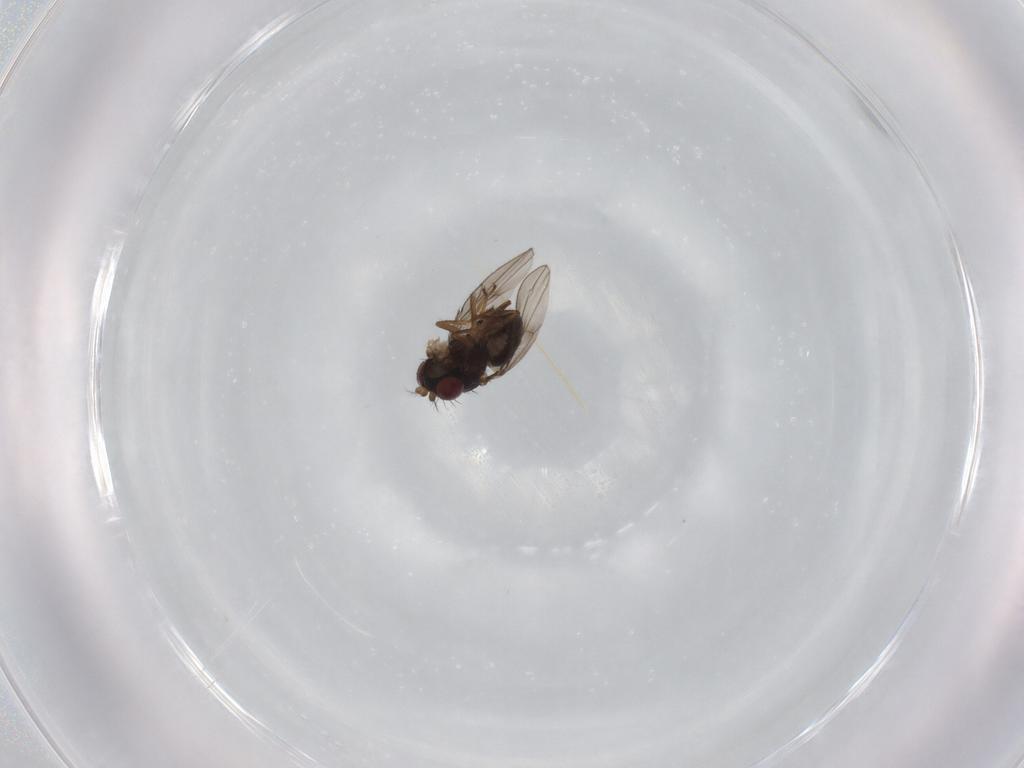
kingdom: Animalia
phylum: Arthropoda
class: Insecta
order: Diptera
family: Ephydridae
